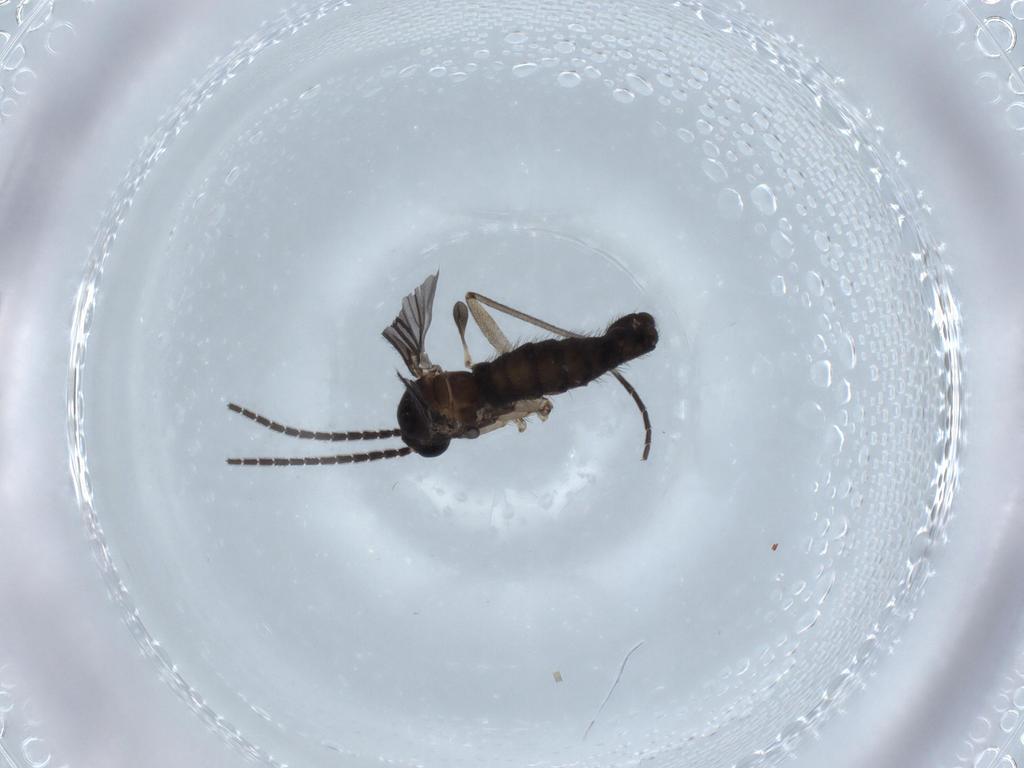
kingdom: Animalia
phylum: Arthropoda
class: Insecta
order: Diptera
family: Sciaridae
